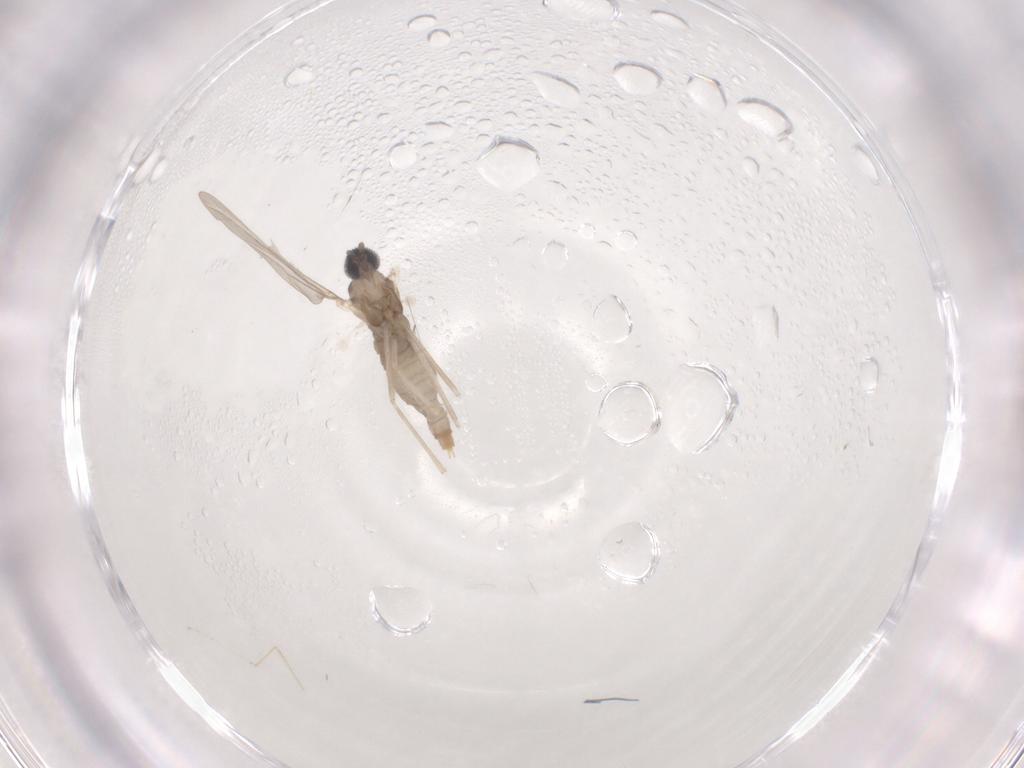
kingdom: Animalia
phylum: Arthropoda
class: Insecta
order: Diptera
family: Cecidomyiidae
